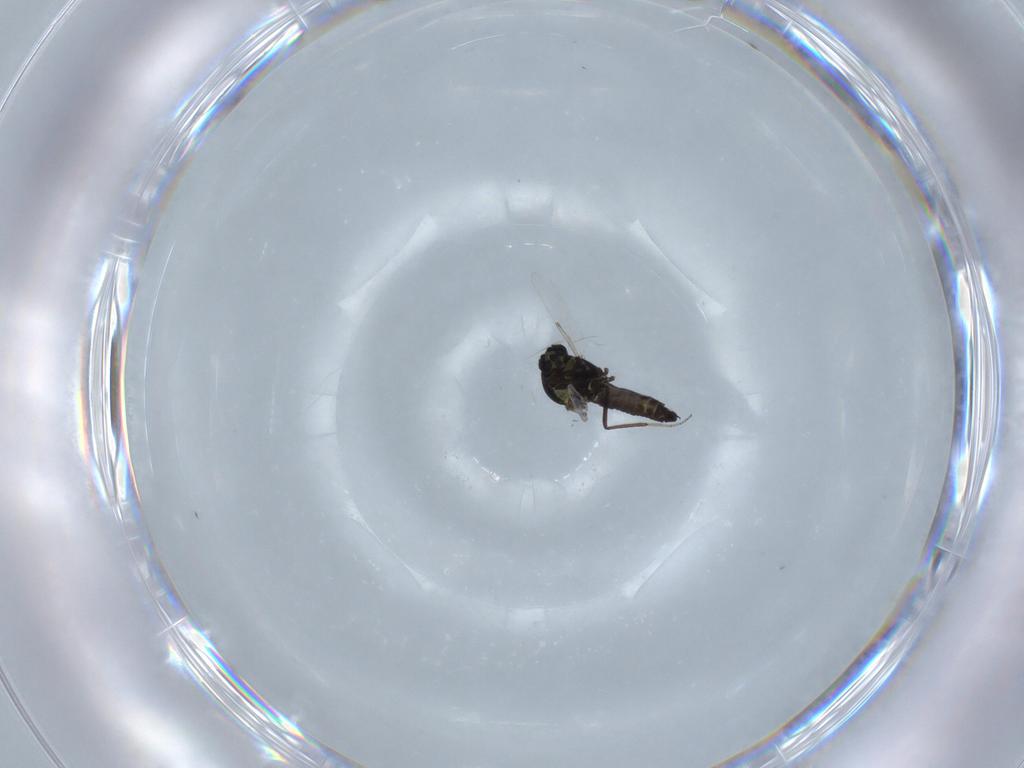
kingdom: Animalia
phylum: Arthropoda
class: Insecta
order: Diptera
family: Ceratopogonidae
